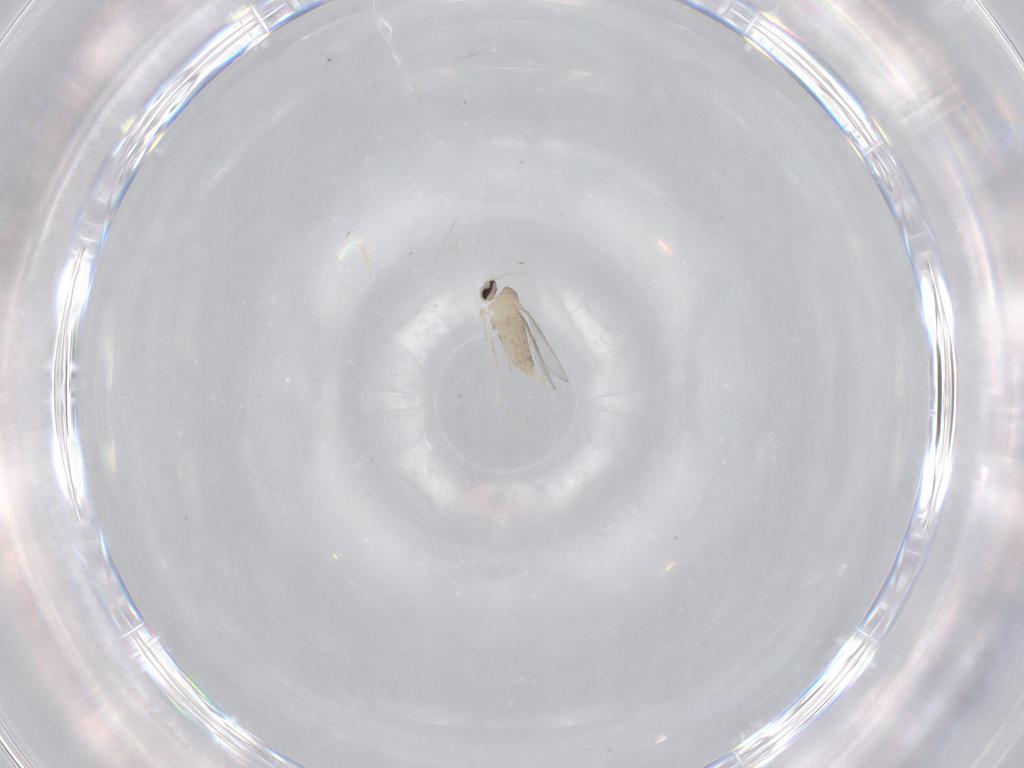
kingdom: Animalia
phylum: Arthropoda
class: Insecta
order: Diptera
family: Cecidomyiidae
